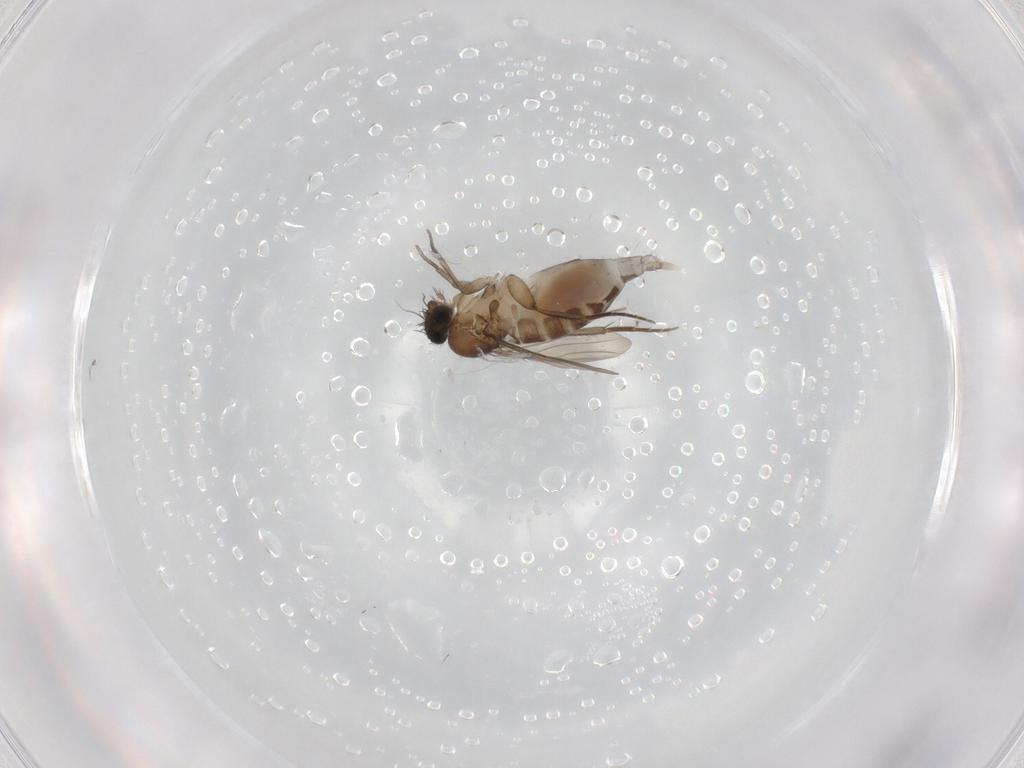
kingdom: Animalia
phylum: Arthropoda
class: Insecta
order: Diptera
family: Phoridae
